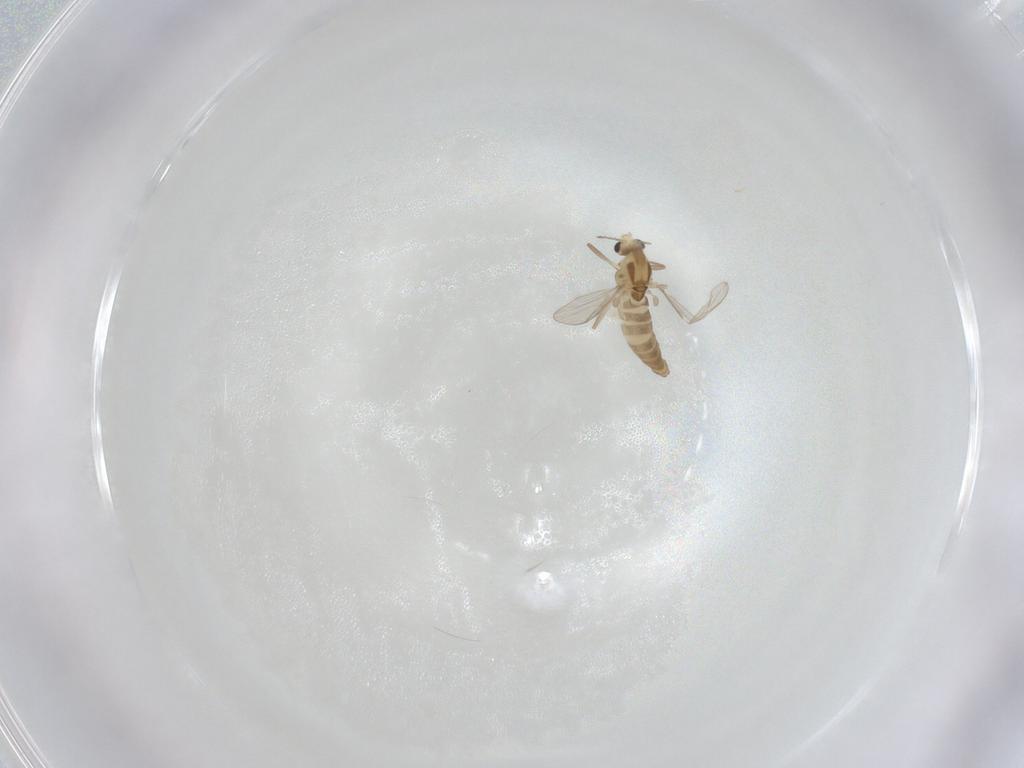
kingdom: Animalia
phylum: Arthropoda
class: Insecta
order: Diptera
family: Chironomidae
